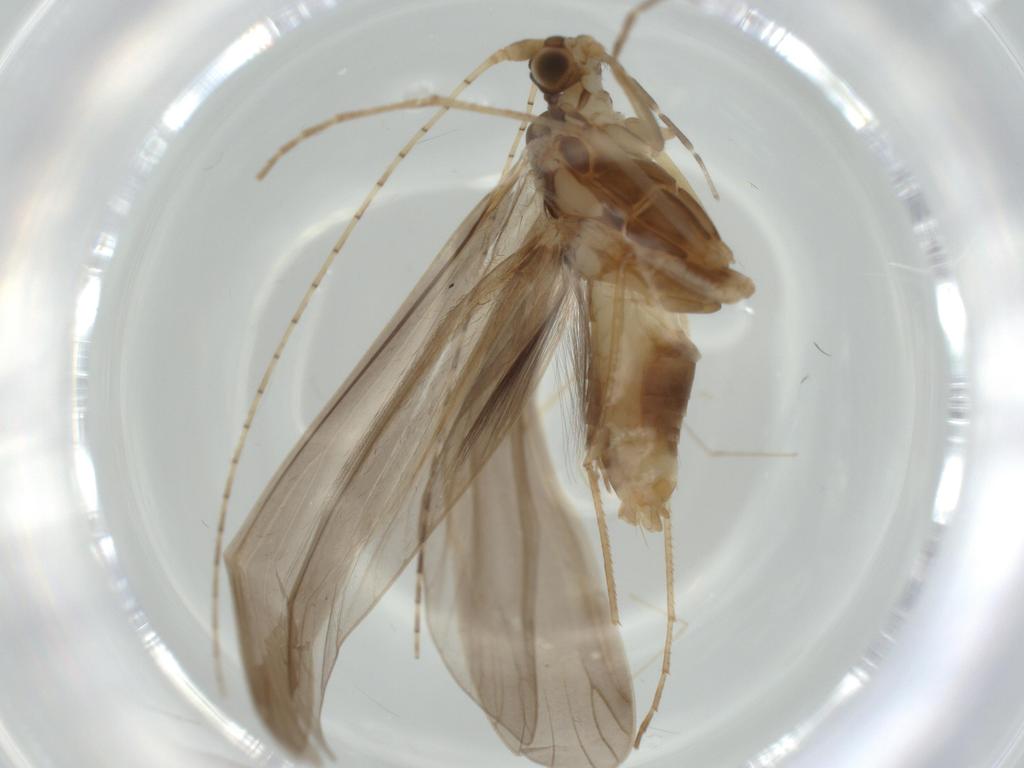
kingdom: Animalia
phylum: Arthropoda
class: Insecta
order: Trichoptera
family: Leptoceridae
